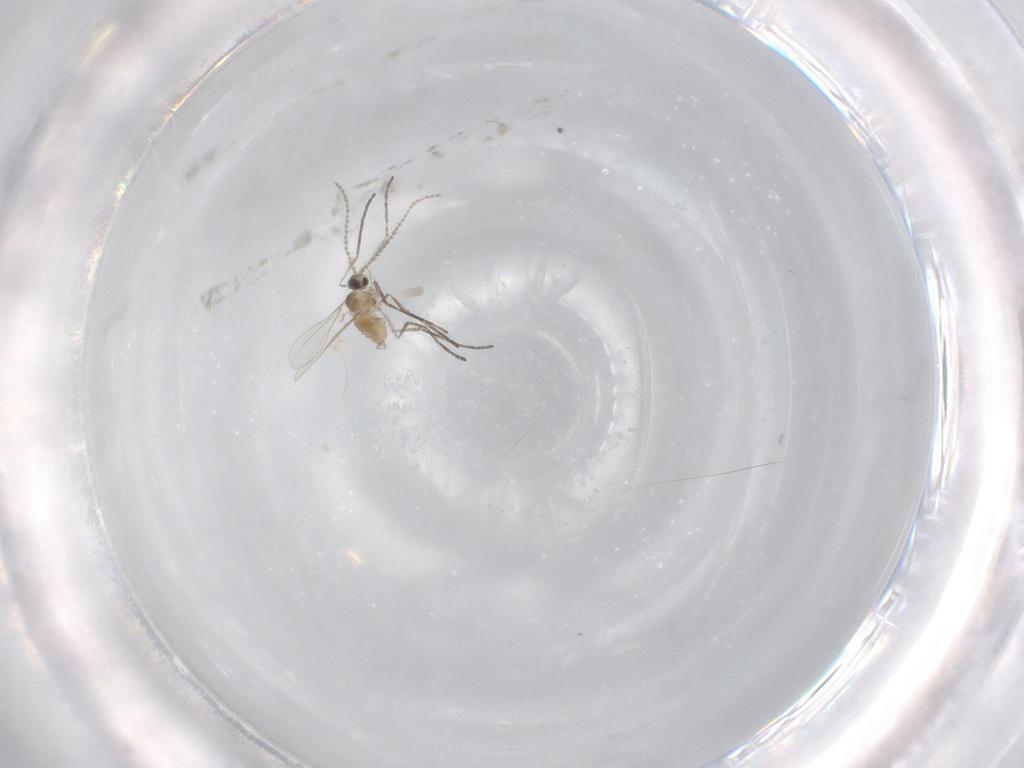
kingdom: Animalia
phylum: Arthropoda
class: Insecta
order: Diptera
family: Cecidomyiidae
